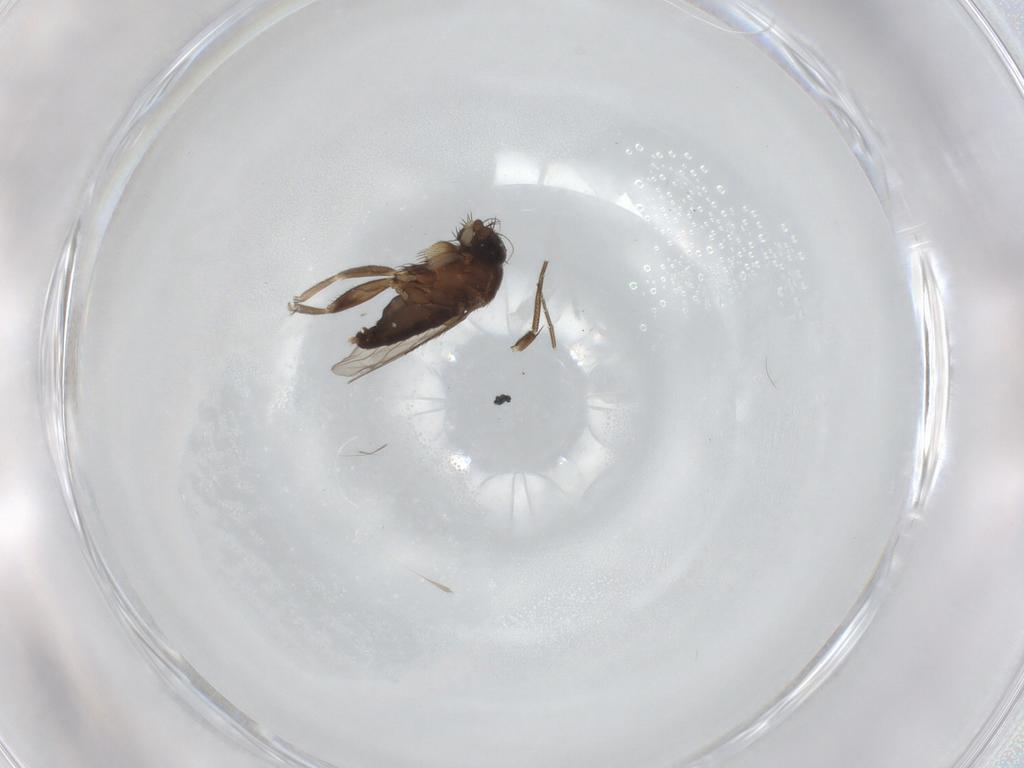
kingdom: Animalia
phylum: Arthropoda
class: Insecta
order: Diptera
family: Phoridae
